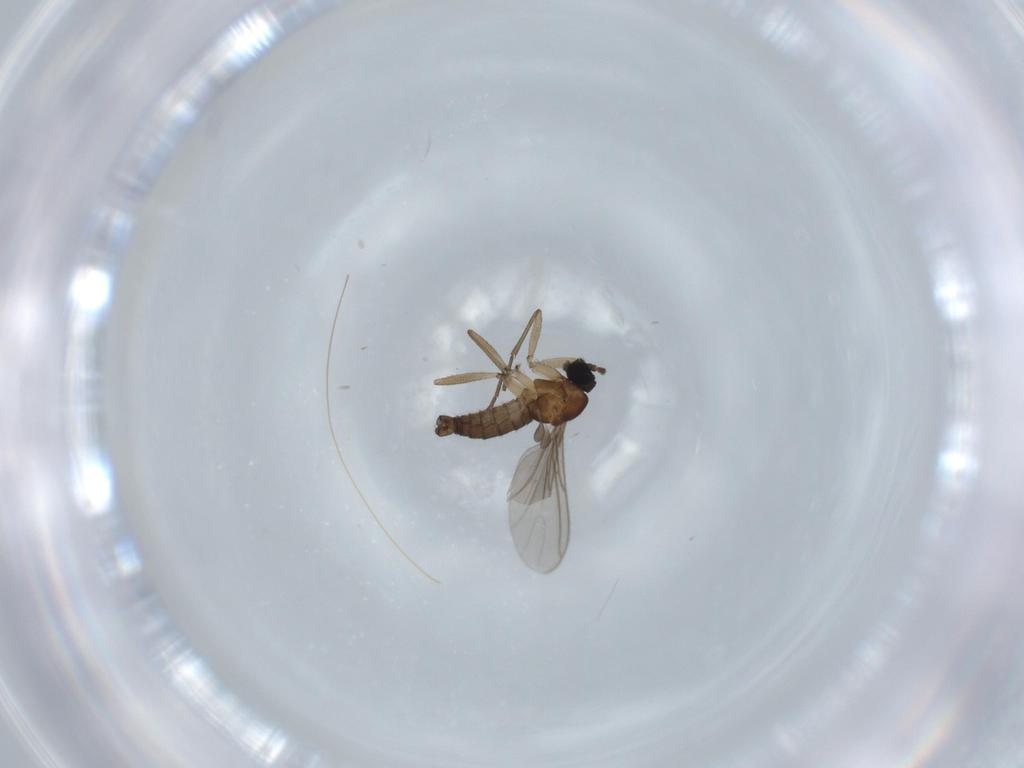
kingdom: Animalia
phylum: Arthropoda
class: Insecta
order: Diptera
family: Sciaridae
